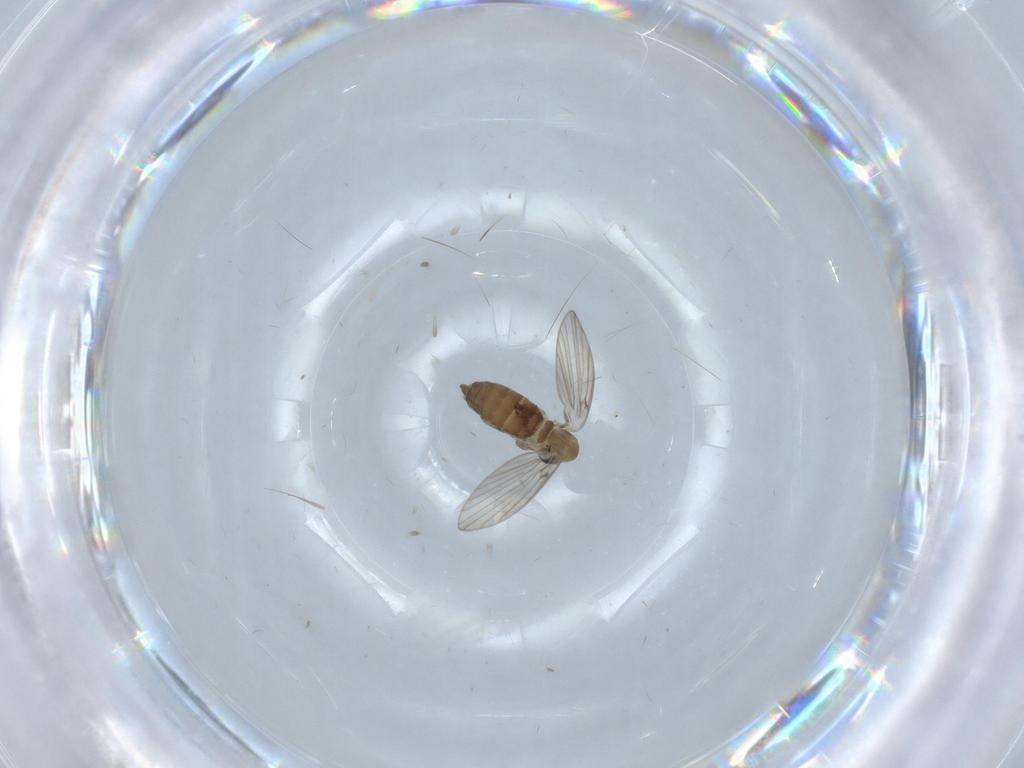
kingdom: Animalia
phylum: Arthropoda
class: Insecta
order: Diptera
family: Psychodidae
